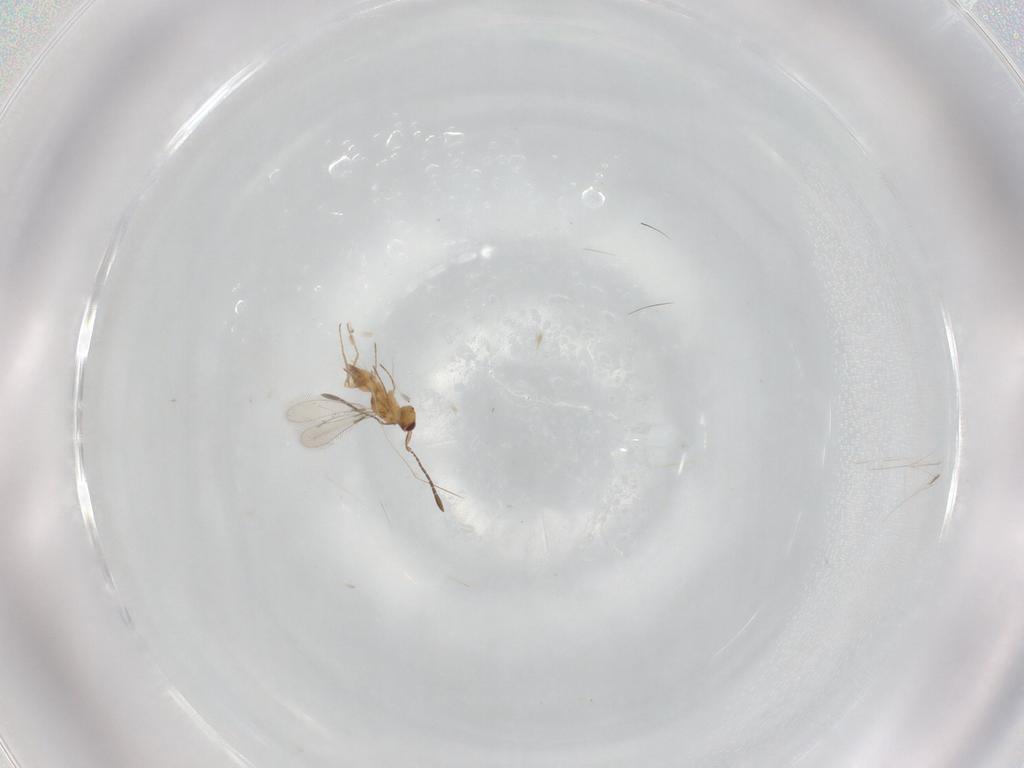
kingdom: Animalia
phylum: Arthropoda
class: Insecta
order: Hymenoptera
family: Mymaridae
